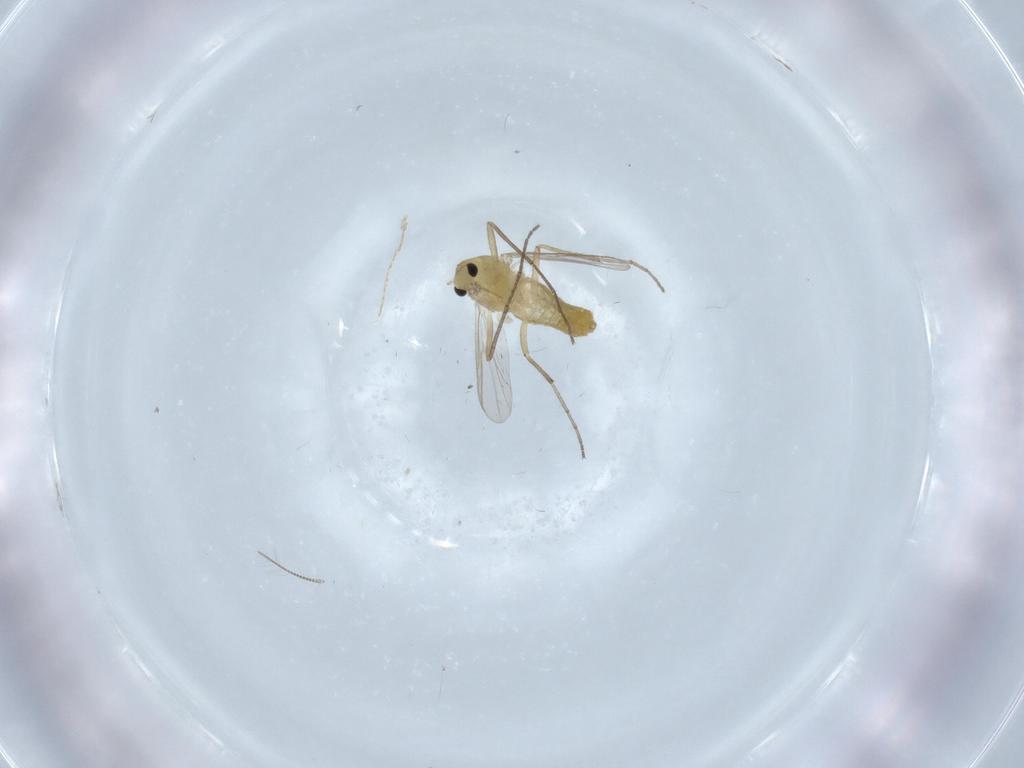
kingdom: Animalia
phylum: Arthropoda
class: Insecta
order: Diptera
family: Chironomidae
